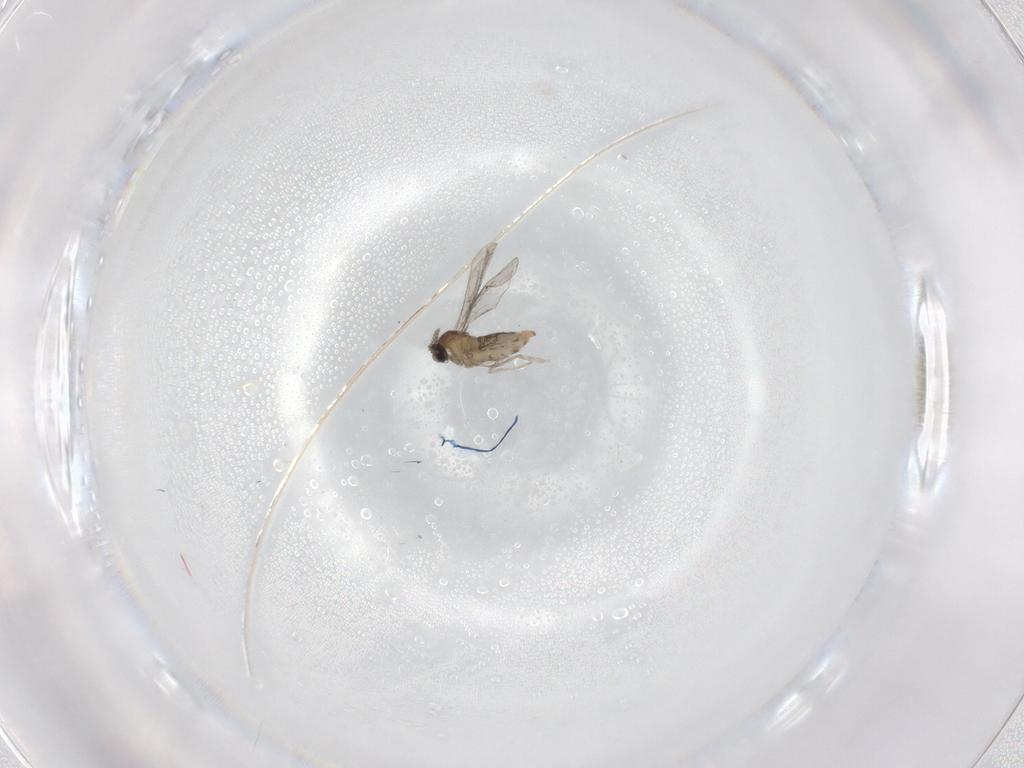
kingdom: Animalia
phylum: Arthropoda
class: Insecta
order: Diptera
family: Cecidomyiidae
